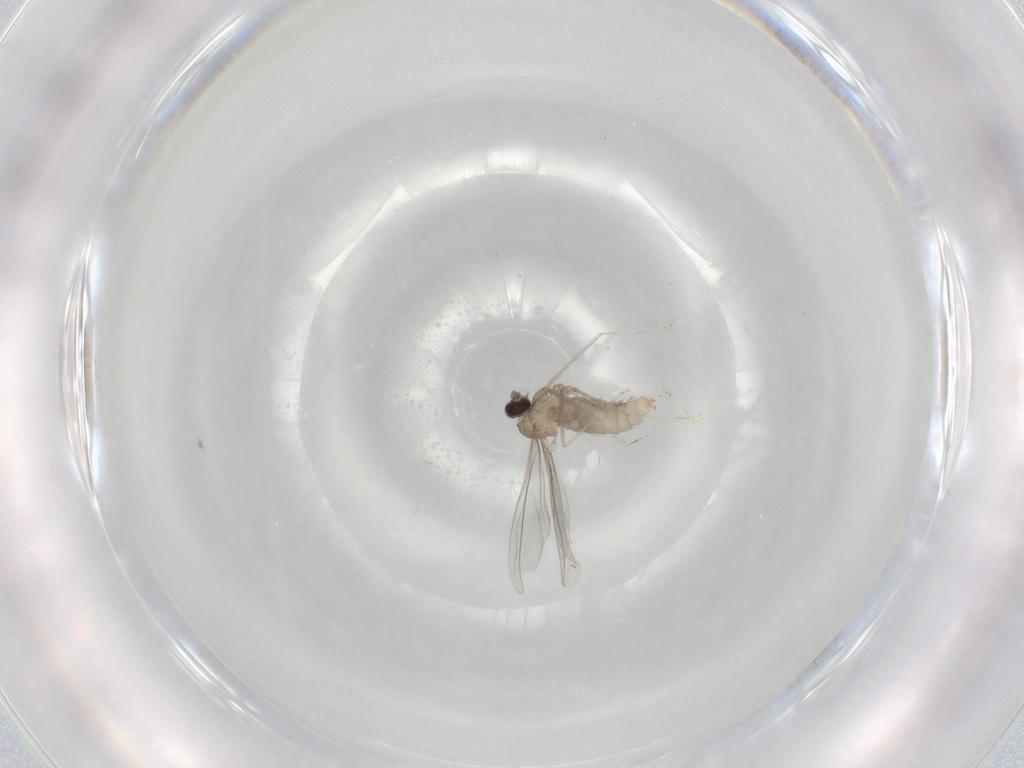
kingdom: Animalia
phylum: Arthropoda
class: Insecta
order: Diptera
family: Cecidomyiidae
